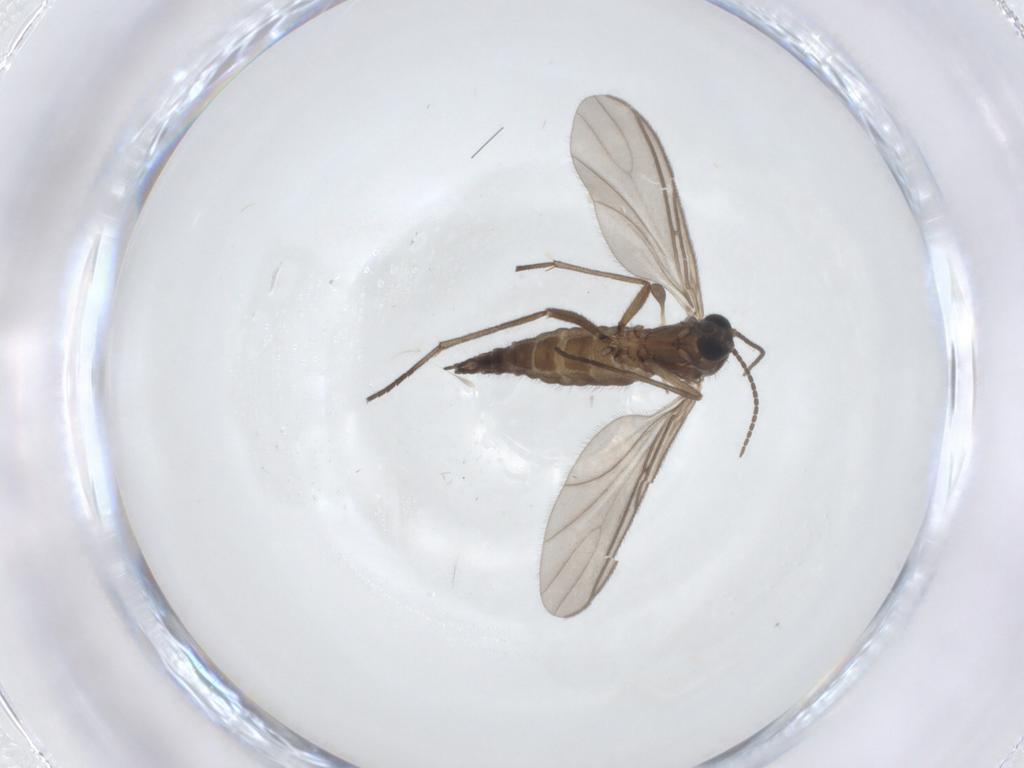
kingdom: Animalia
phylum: Arthropoda
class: Insecta
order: Diptera
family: Sciaridae
